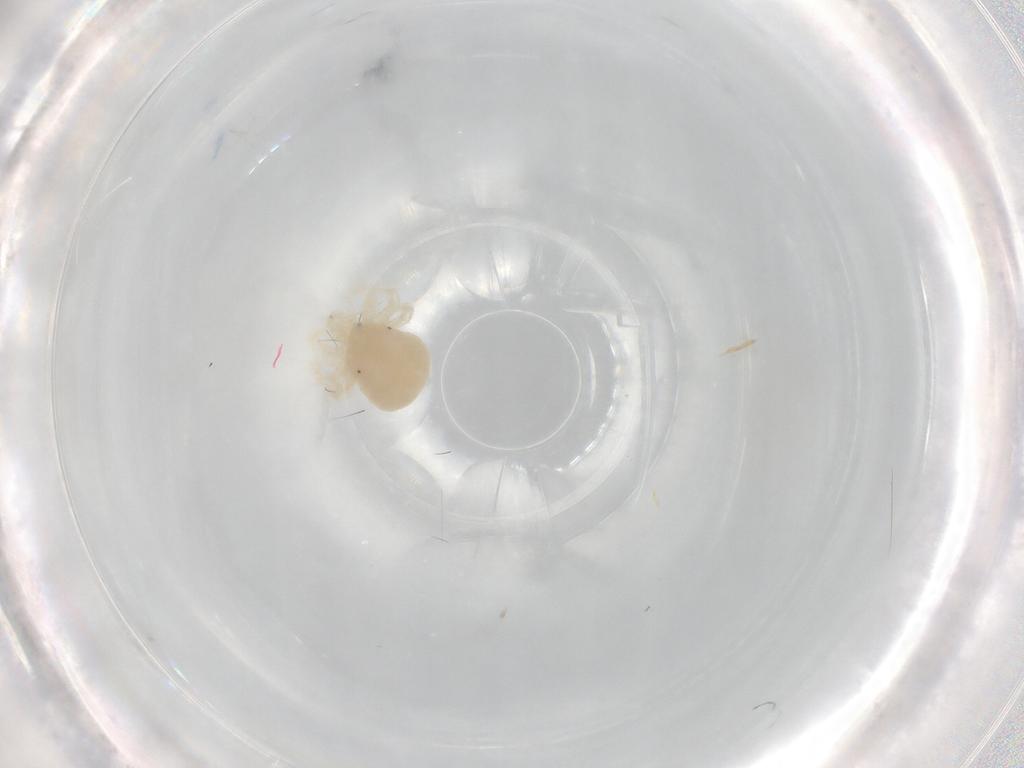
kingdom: Animalia
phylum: Arthropoda
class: Arachnida
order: Trombidiformes
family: Anystidae
